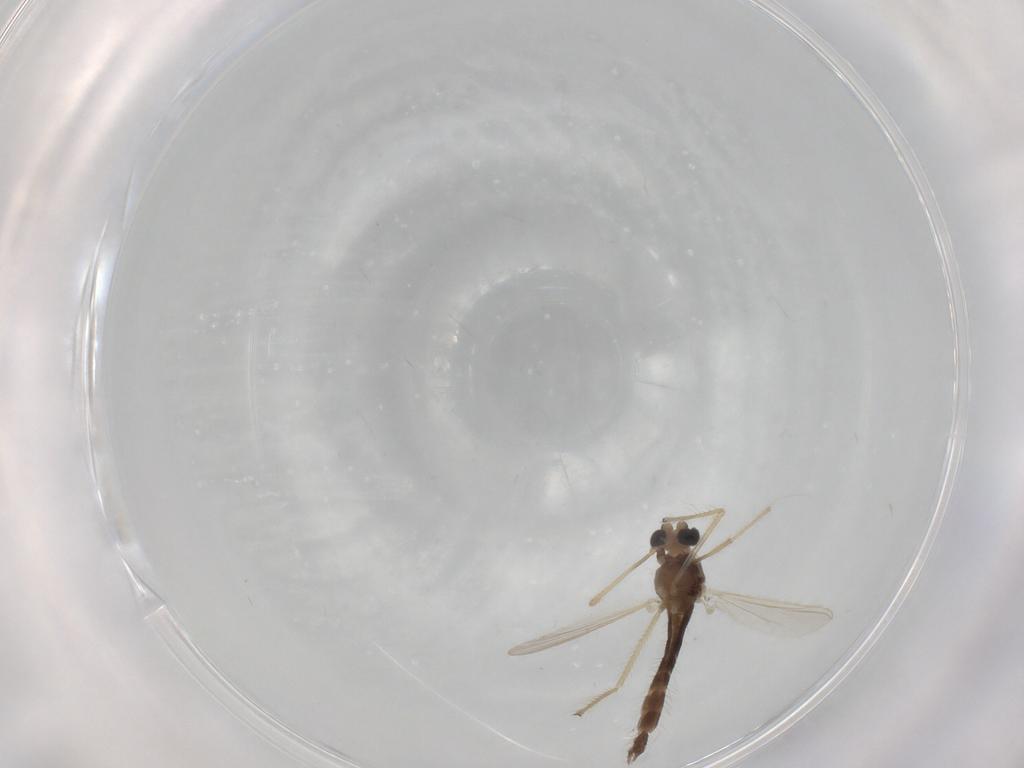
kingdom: Animalia
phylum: Arthropoda
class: Insecta
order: Diptera
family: Chironomidae
